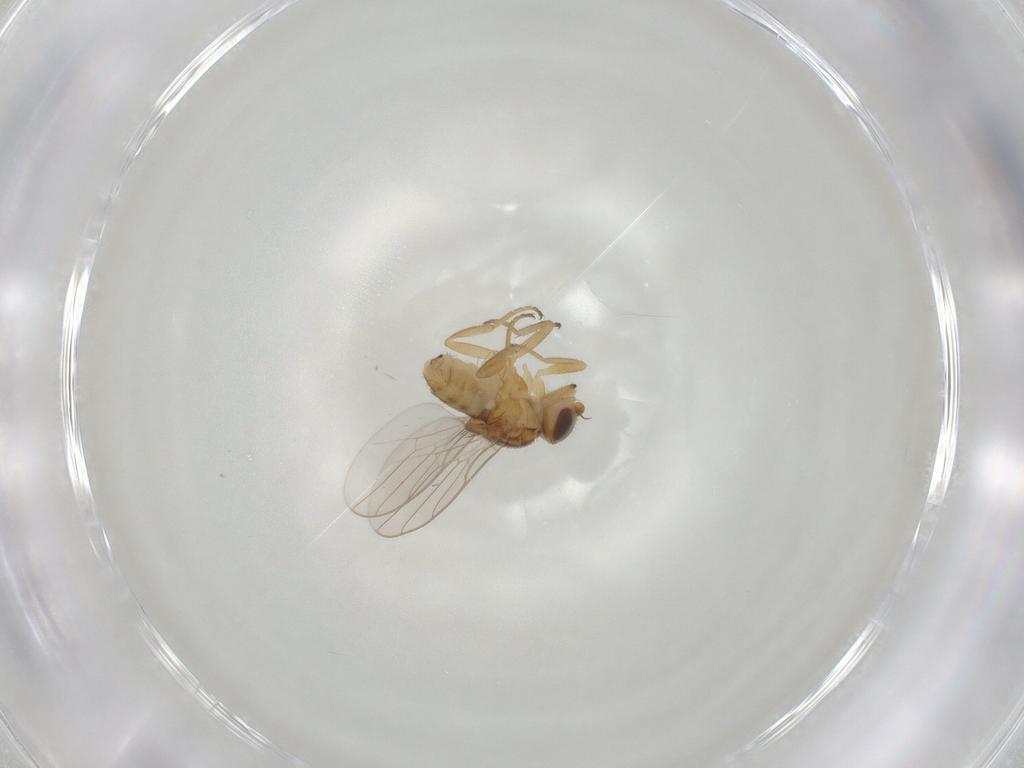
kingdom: Animalia
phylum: Arthropoda
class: Insecta
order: Diptera
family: Chloropidae
